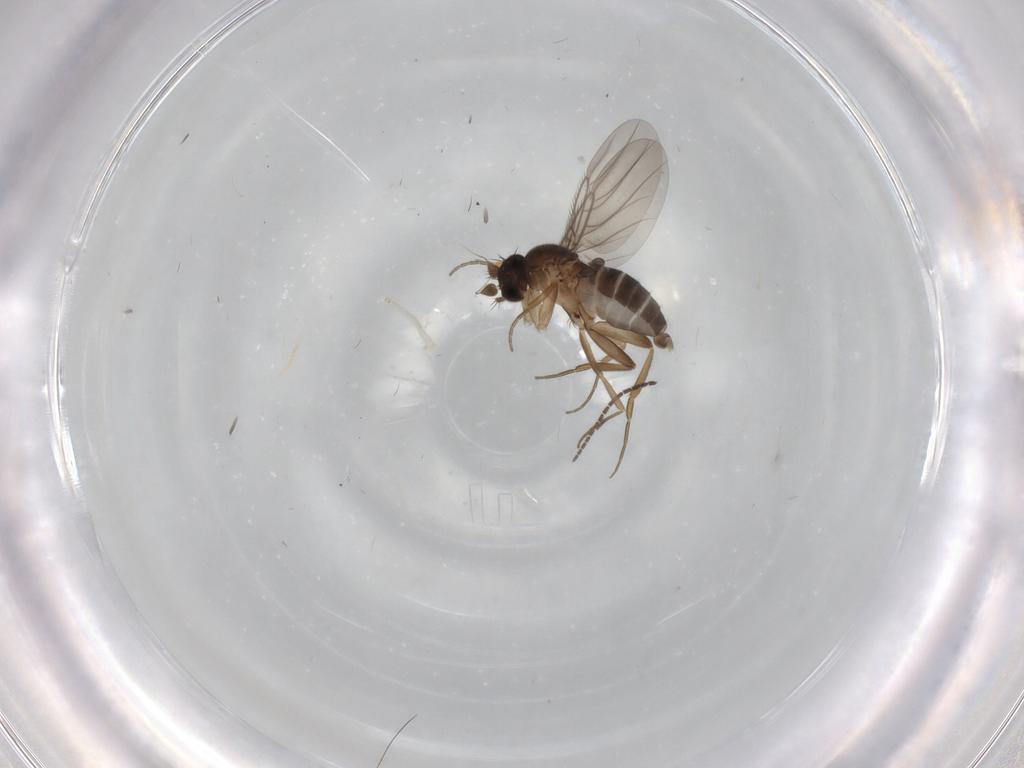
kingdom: Animalia
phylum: Arthropoda
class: Insecta
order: Diptera
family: Phoridae
